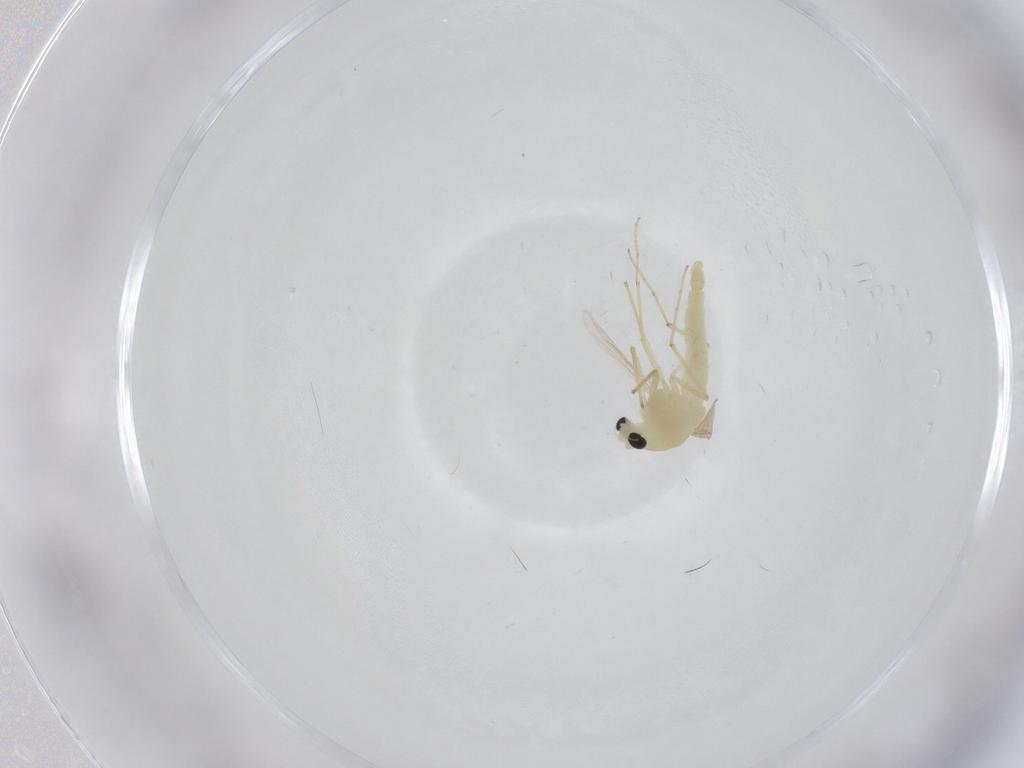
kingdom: Animalia
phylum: Arthropoda
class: Insecta
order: Diptera
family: Chironomidae
